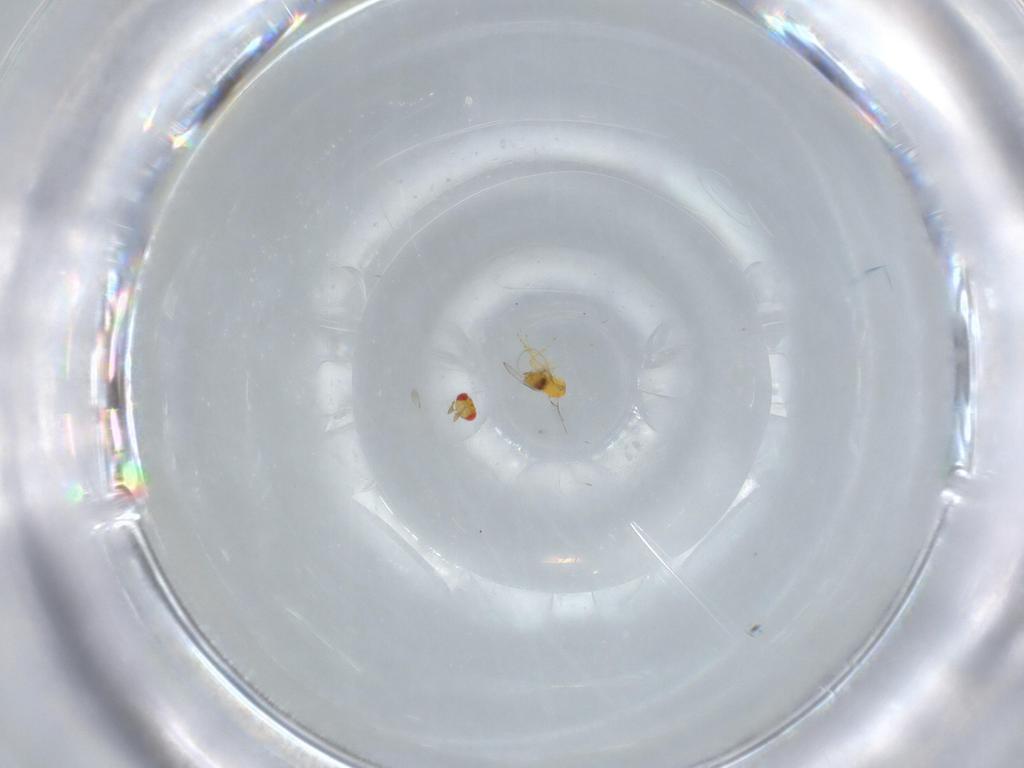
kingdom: Animalia
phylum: Arthropoda
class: Insecta
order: Hymenoptera
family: Trichogrammatidae
